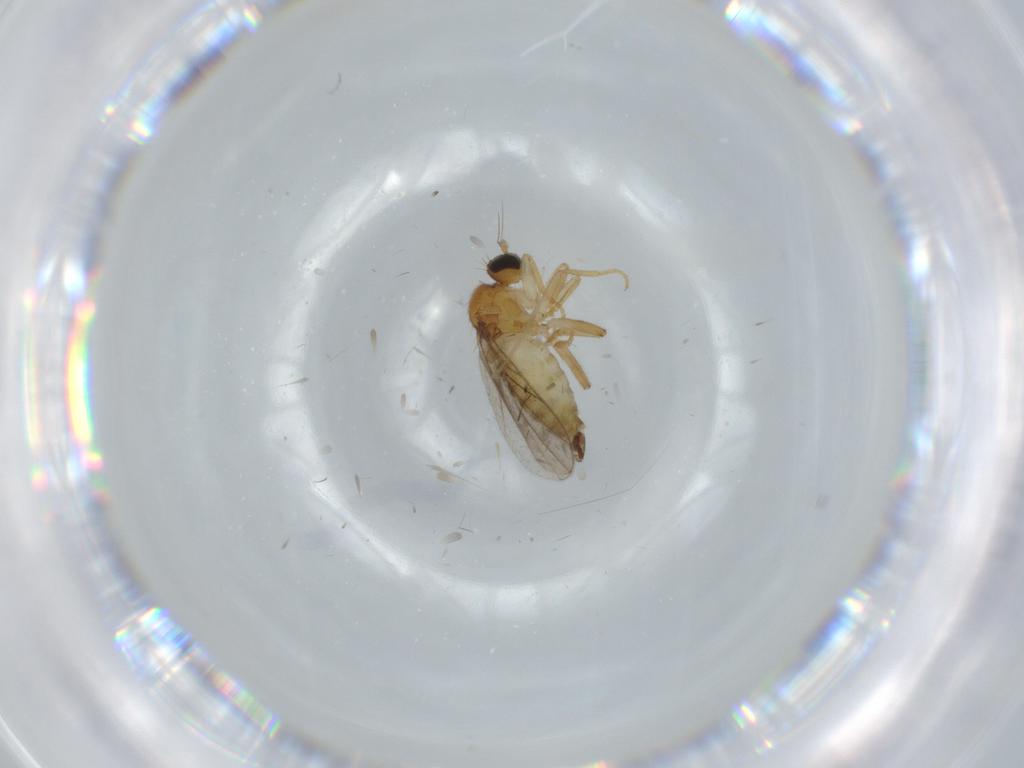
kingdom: Animalia
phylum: Arthropoda
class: Insecta
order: Diptera
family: Hybotidae
